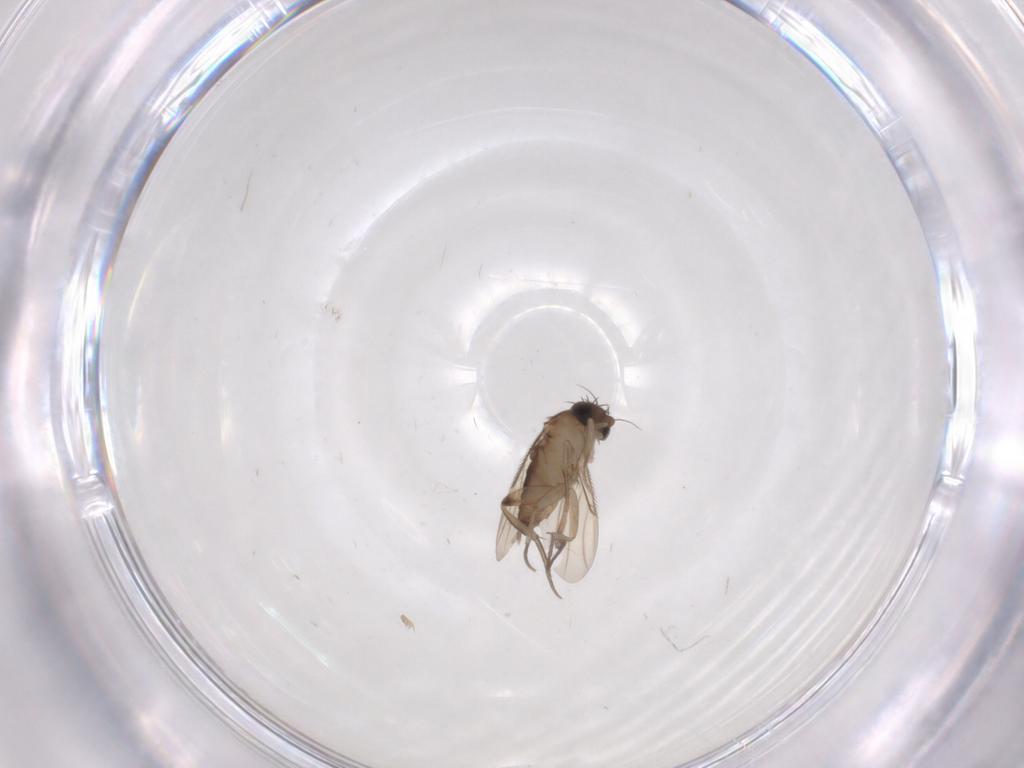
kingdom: Animalia
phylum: Arthropoda
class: Insecta
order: Diptera
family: Phoridae
